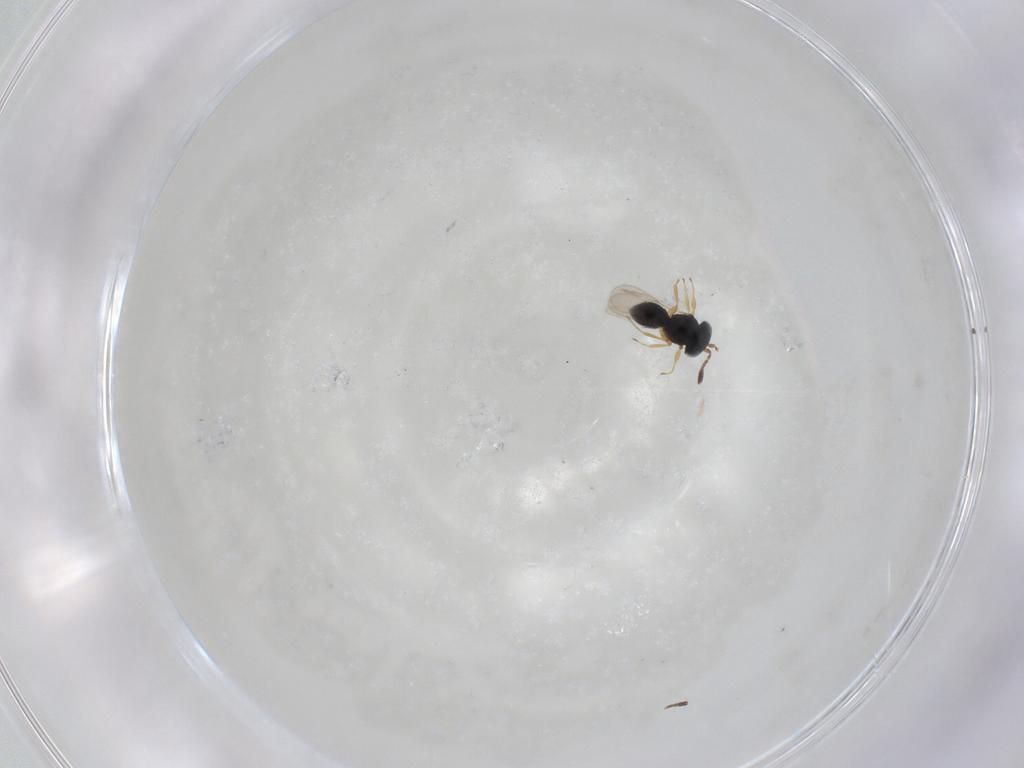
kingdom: Animalia
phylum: Arthropoda
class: Insecta
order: Hymenoptera
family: Scelionidae
